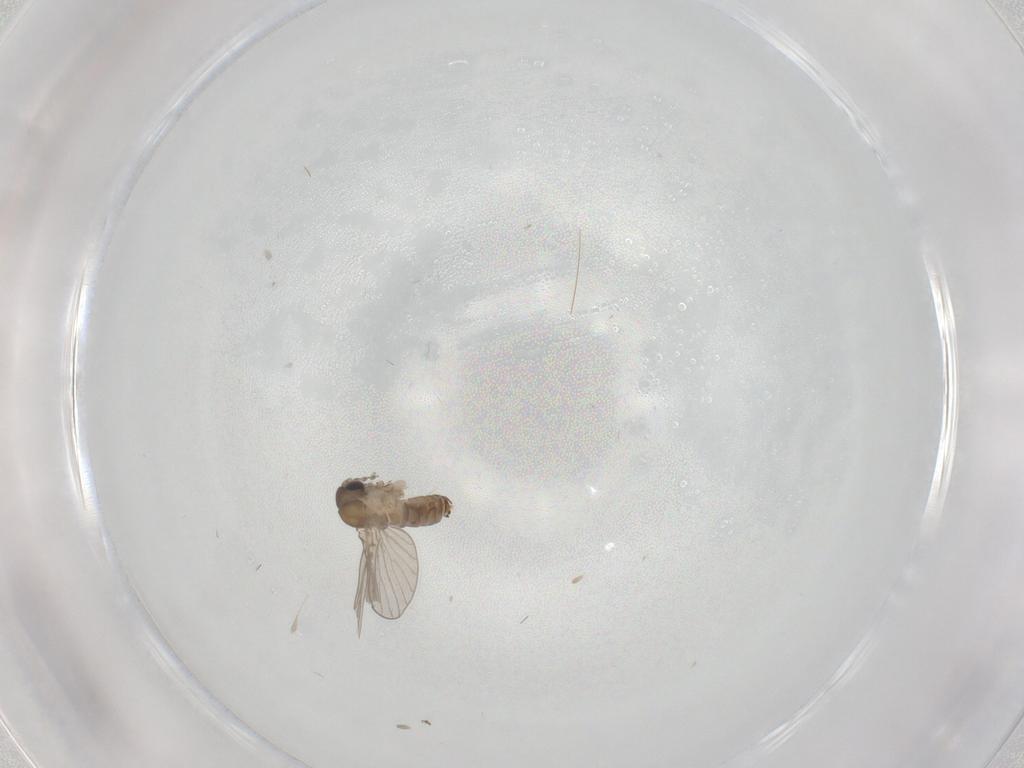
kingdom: Animalia
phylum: Arthropoda
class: Insecta
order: Diptera
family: Psychodidae
